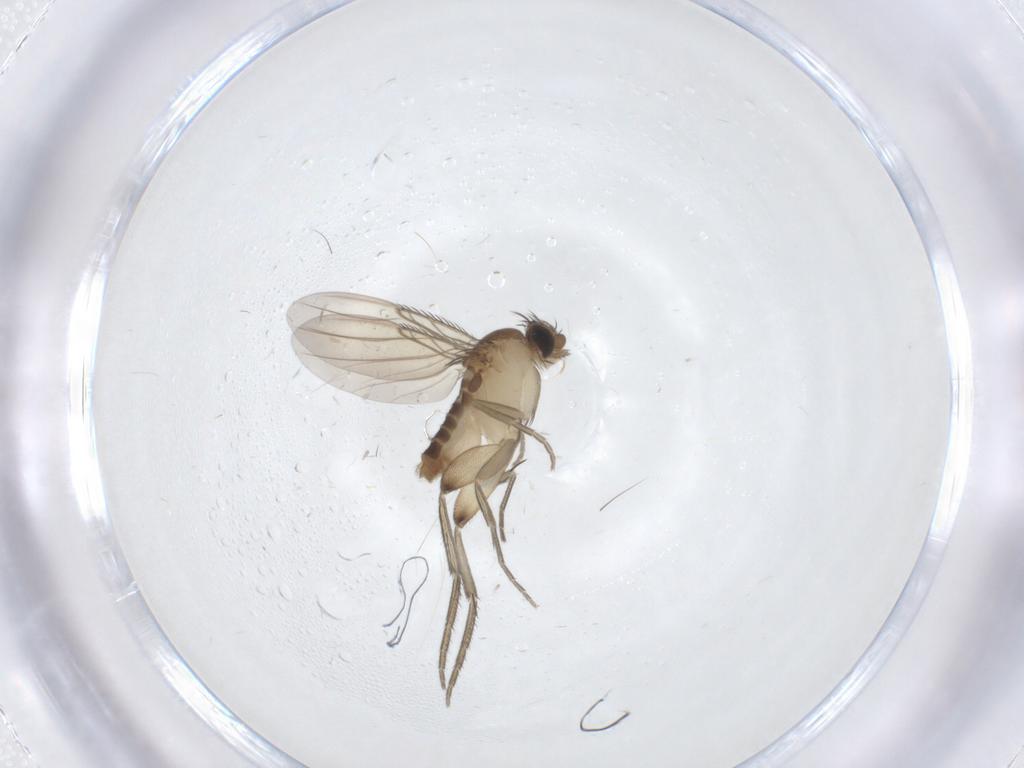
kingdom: Animalia
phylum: Arthropoda
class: Insecta
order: Diptera
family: Phoridae
